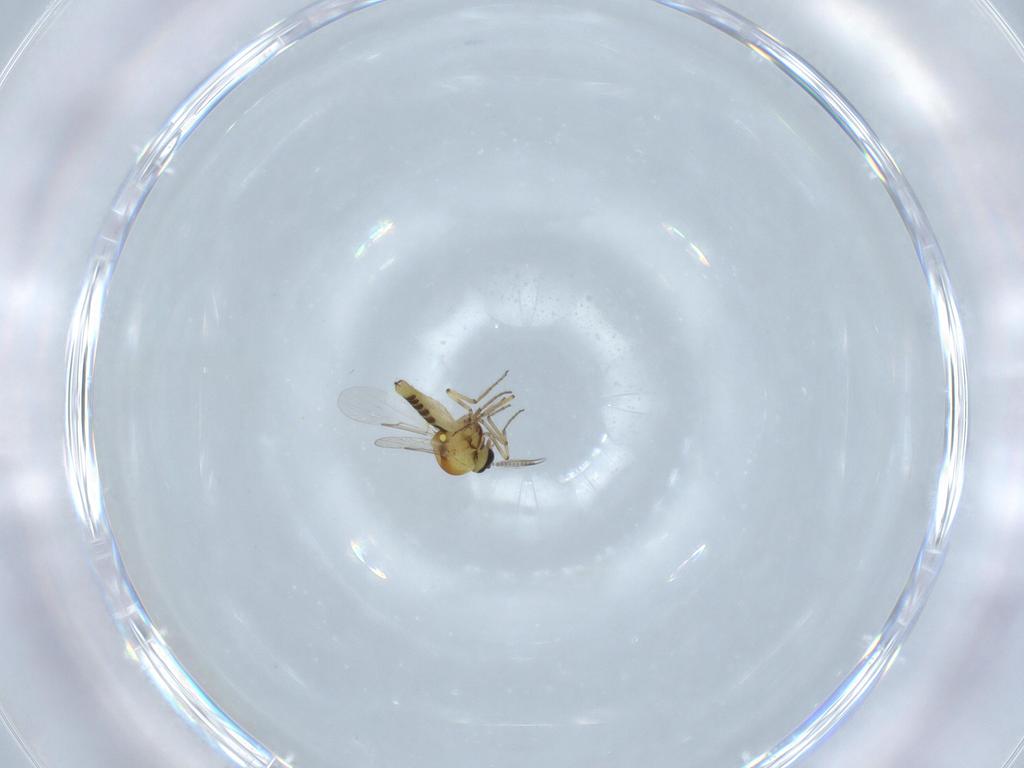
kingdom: Animalia
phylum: Arthropoda
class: Insecta
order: Diptera
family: Ceratopogonidae
